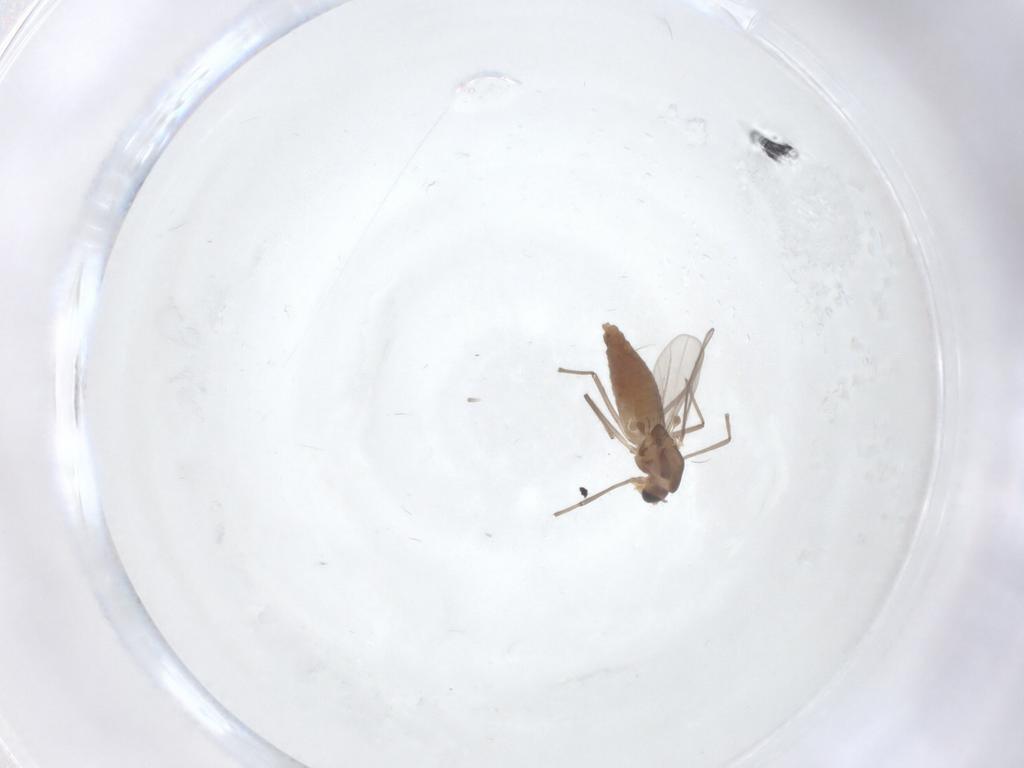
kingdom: Animalia
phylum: Arthropoda
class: Insecta
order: Diptera
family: Chironomidae
